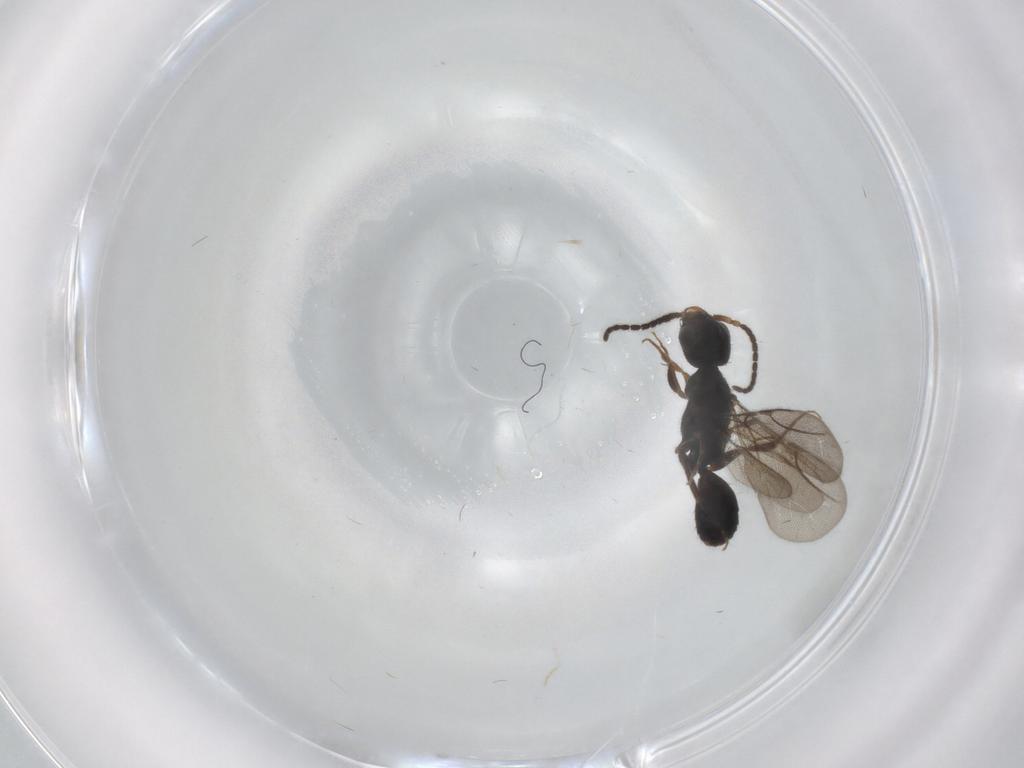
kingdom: Animalia
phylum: Arthropoda
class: Insecta
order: Hymenoptera
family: Bethylidae
